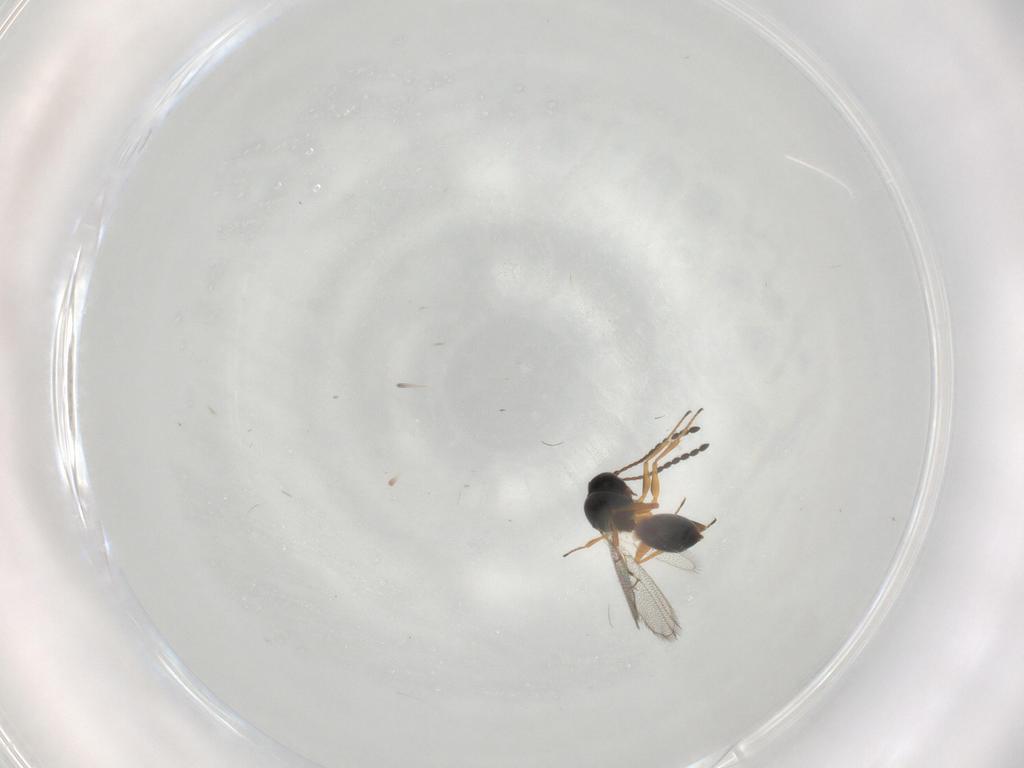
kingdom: Animalia
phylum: Arthropoda
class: Insecta
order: Hymenoptera
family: Figitidae
